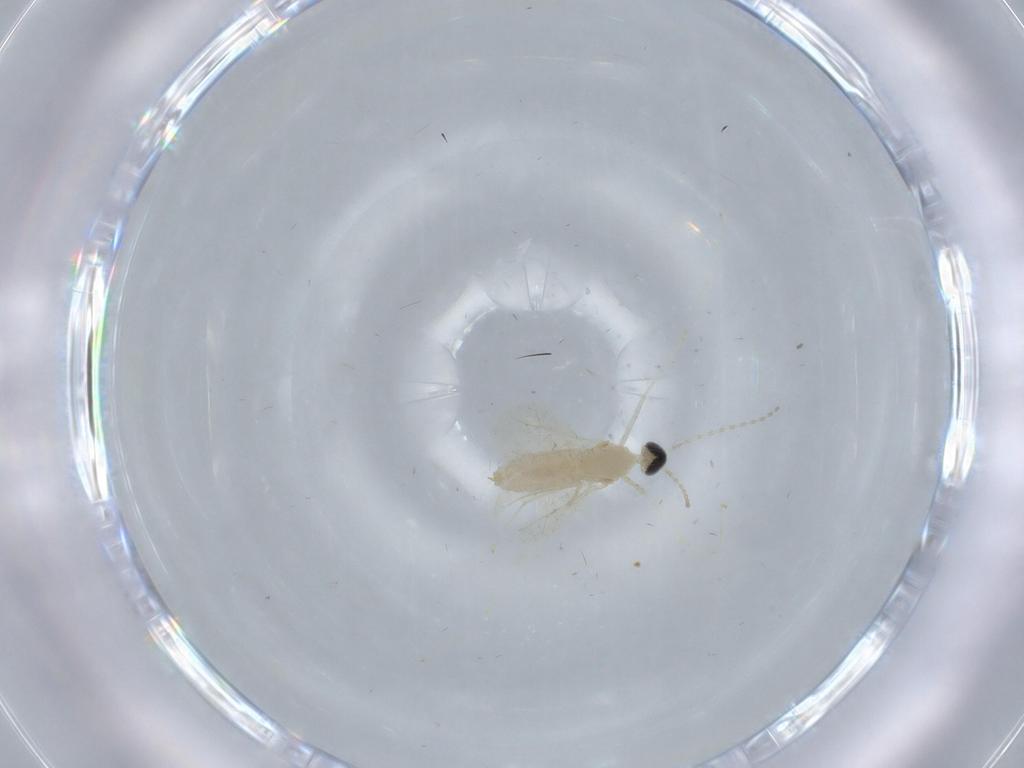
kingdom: Animalia
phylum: Arthropoda
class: Insecta
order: Diptera
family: Cecidomyiidae
